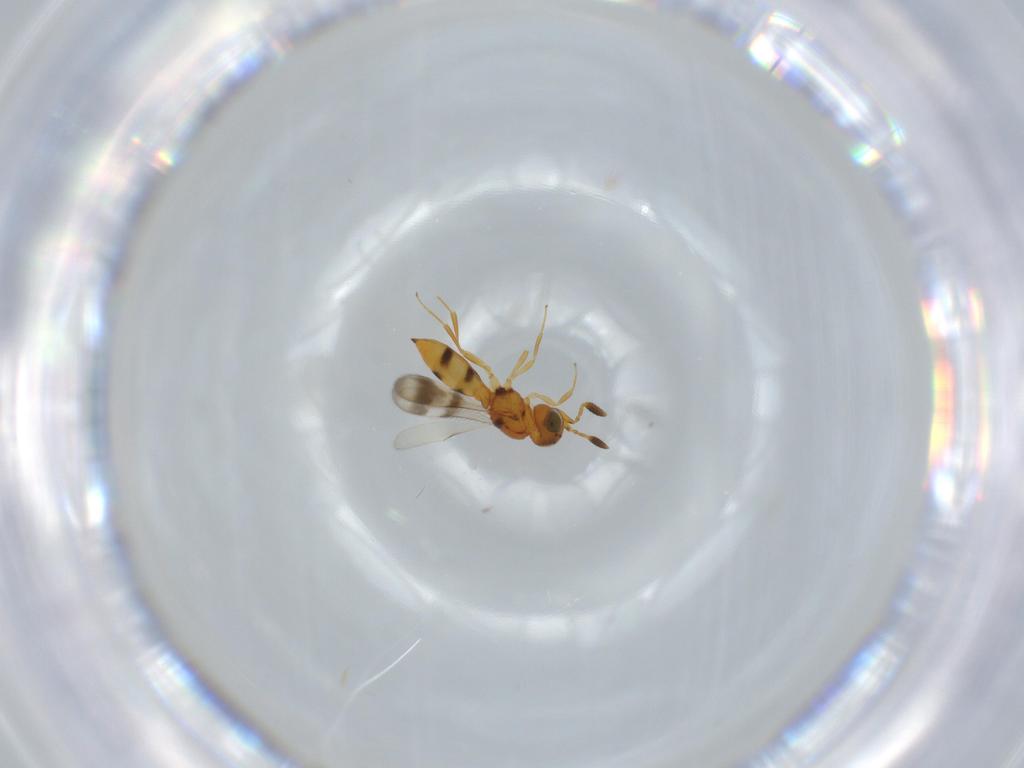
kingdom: Animalia
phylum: Arthropoda
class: Insecta
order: Hymenoptera
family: Scelionidae
